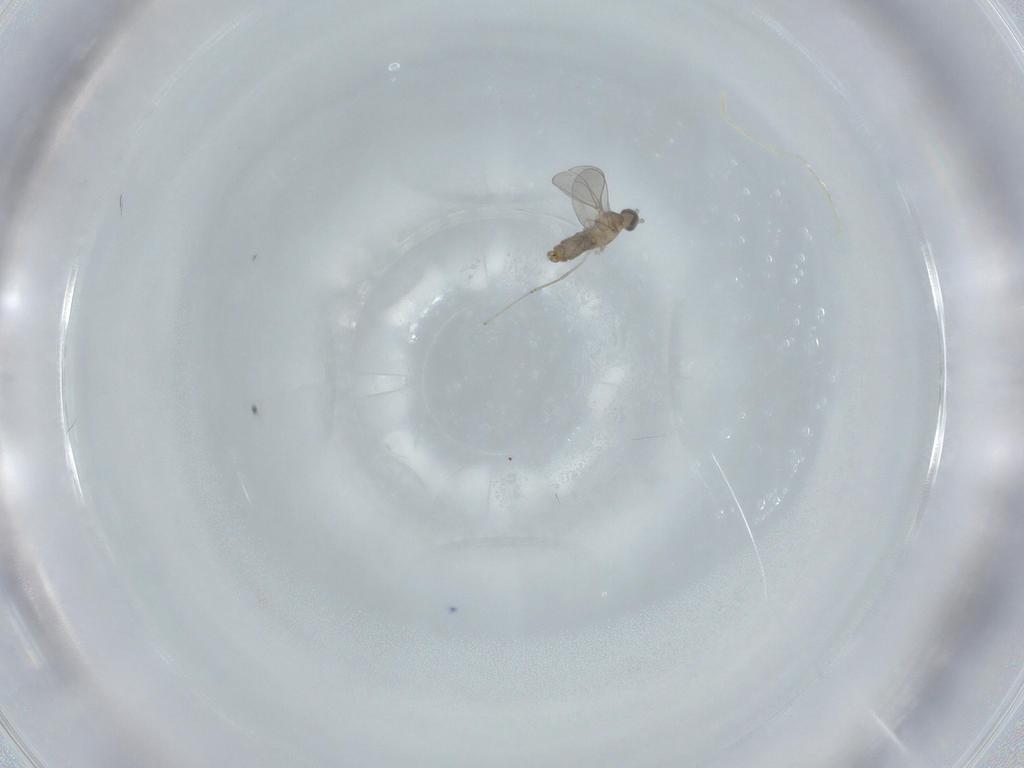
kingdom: Animalia
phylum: Arthropoda
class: Insecta
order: Diptera
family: Cecidomyiidae
